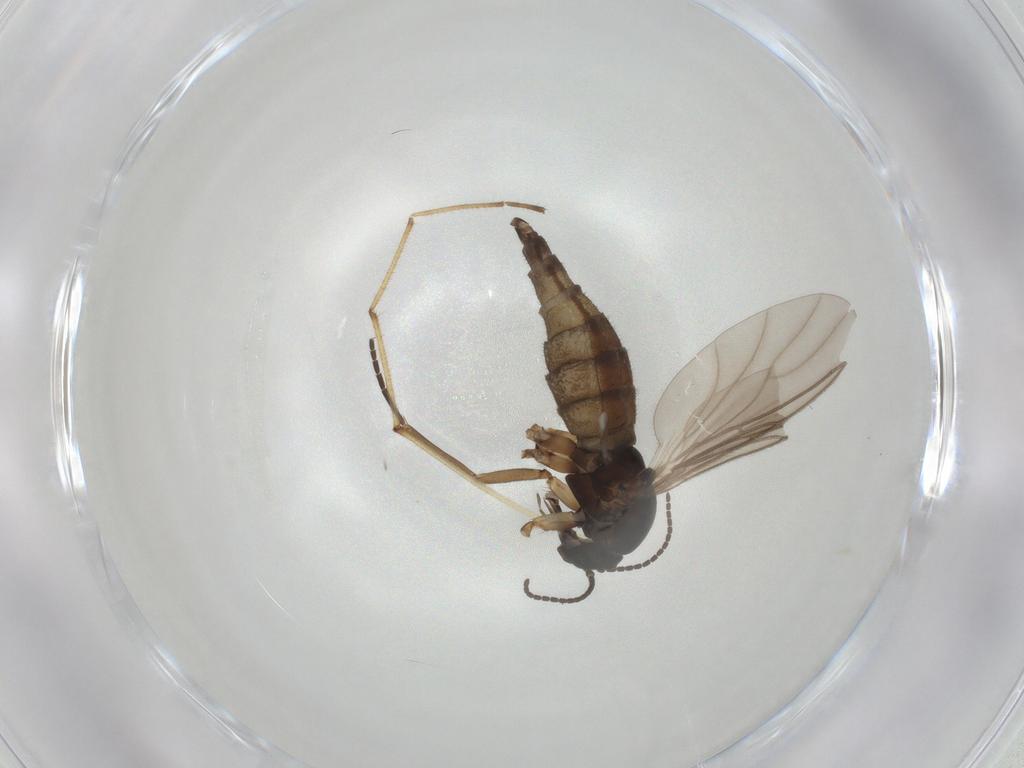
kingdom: Animalia
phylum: Arthropoda
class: Insecta
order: Diptera
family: Sciaridae
